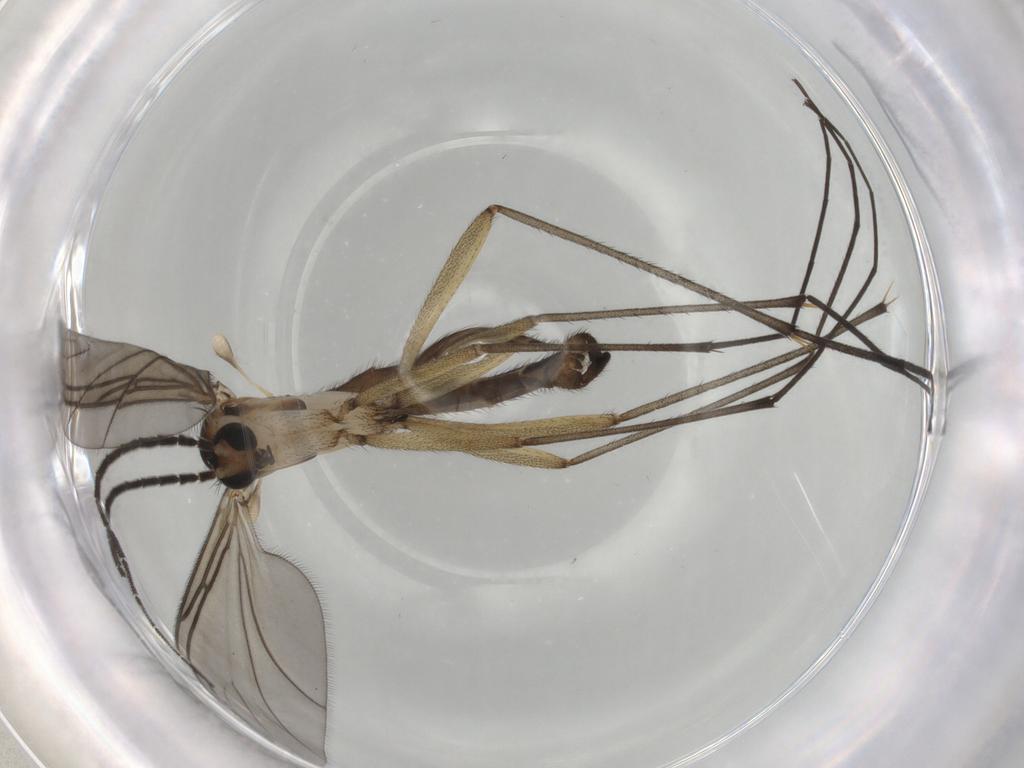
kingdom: Animalia
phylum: Arthropoda
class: Insecta
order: Diptera
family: Sciaridae
